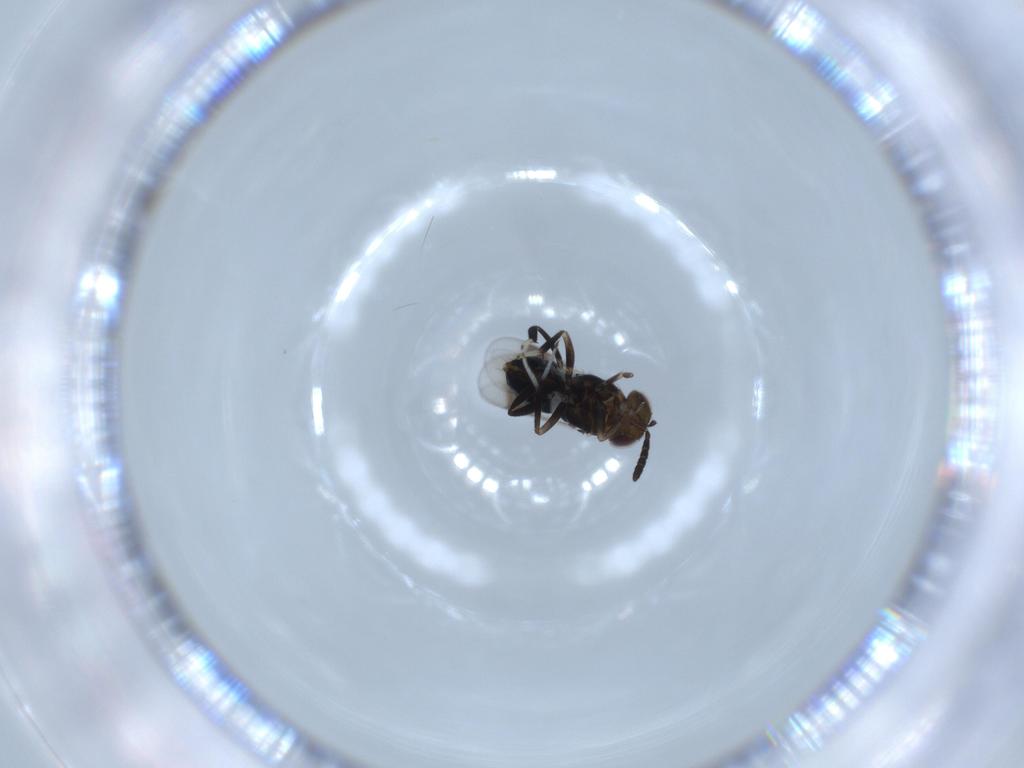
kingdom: Animalia
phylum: Arthropoda
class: Insecta
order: Hymenoptera
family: Aphelinidae
